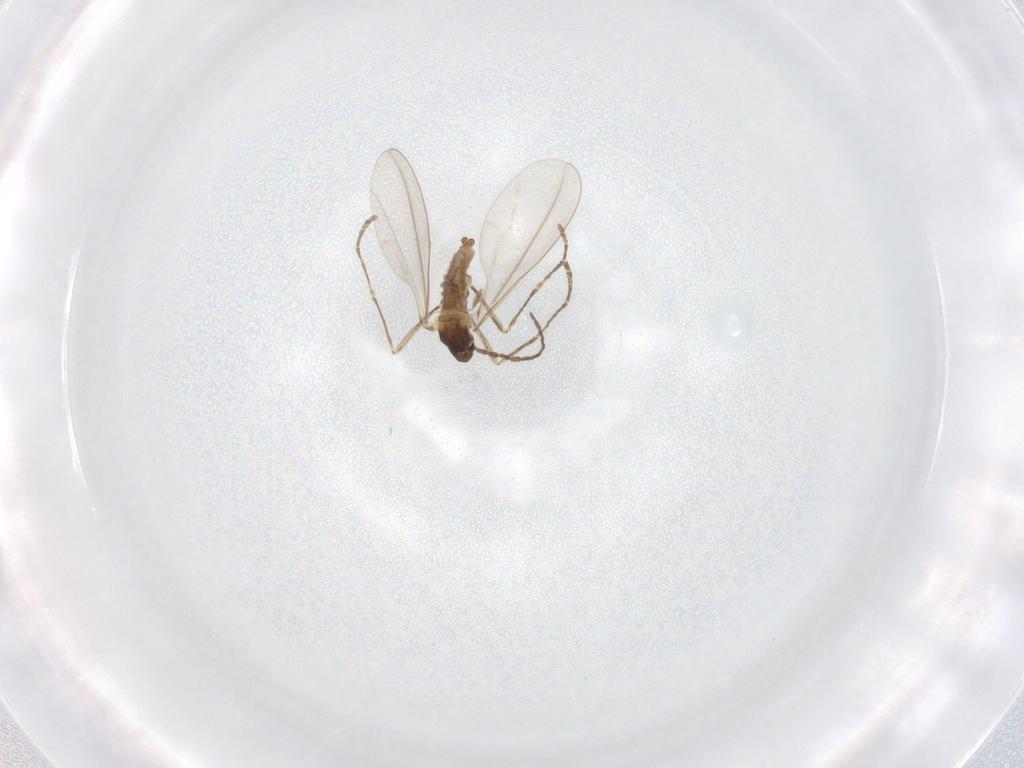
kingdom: Animalia
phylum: Arthropoda
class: Insecta
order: Diptera
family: Cecidomyiidae
